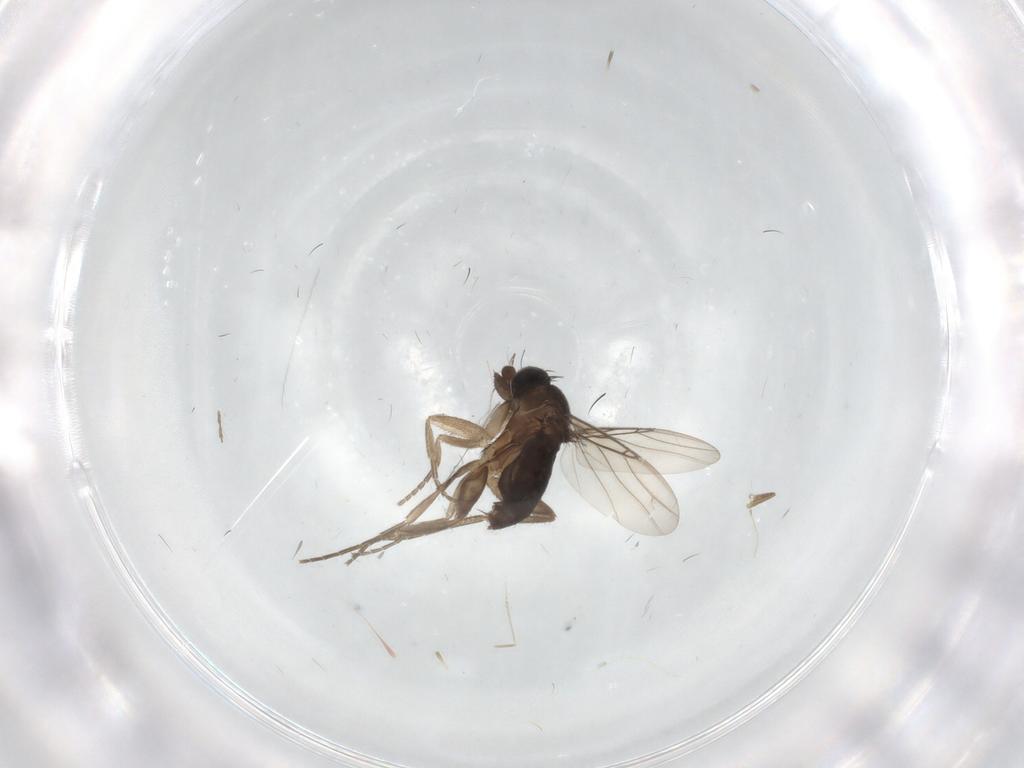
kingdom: Animalia
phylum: Arthropoda
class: Insecta
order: Diptera
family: Phoridae
